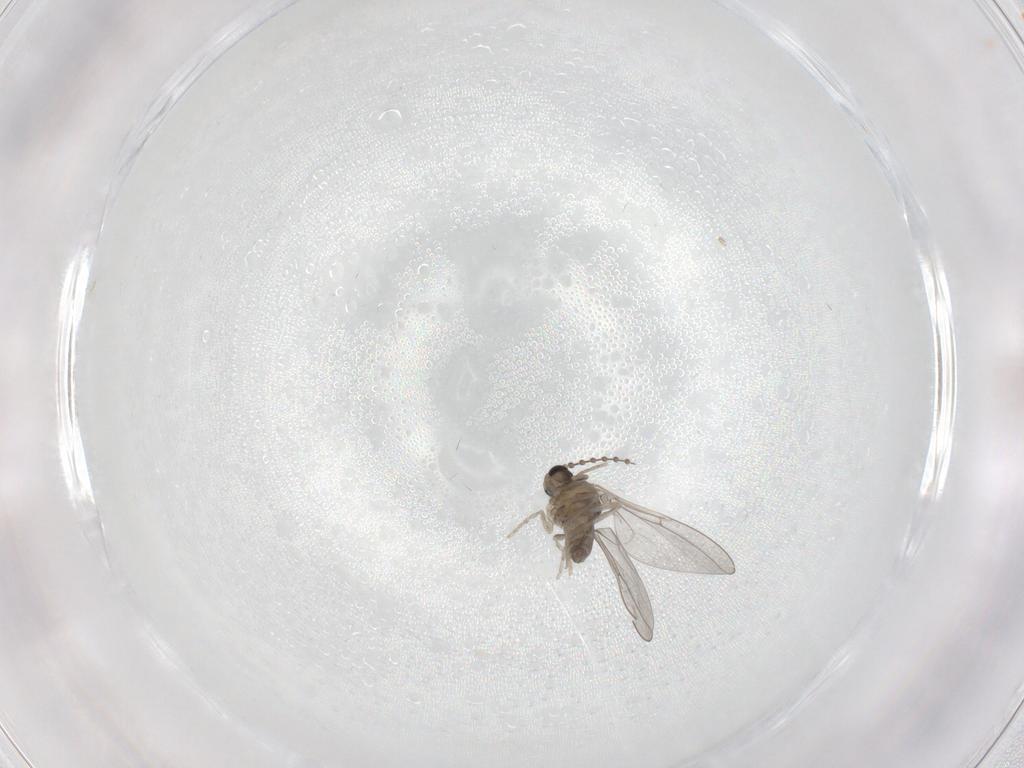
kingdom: Animalia
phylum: Arthropoda
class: Insecta
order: Diptera
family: Cecidomyiidae
